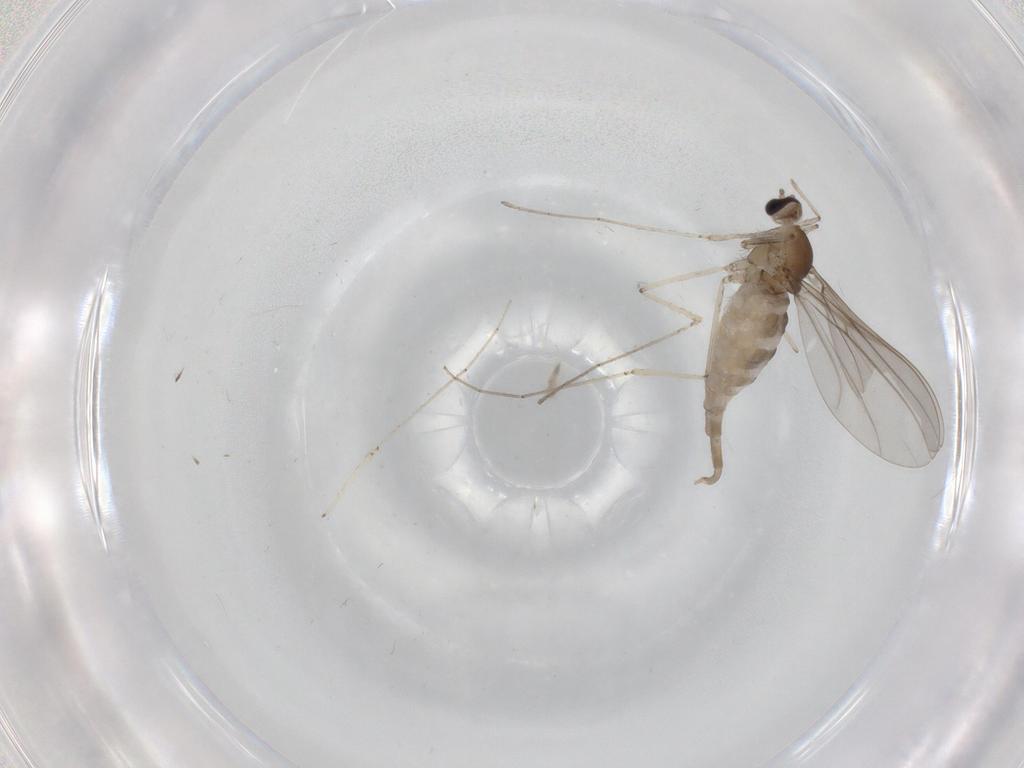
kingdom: Animalia
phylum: Arthropoda
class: Insecta
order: Diptera
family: Cecidomyiidae
